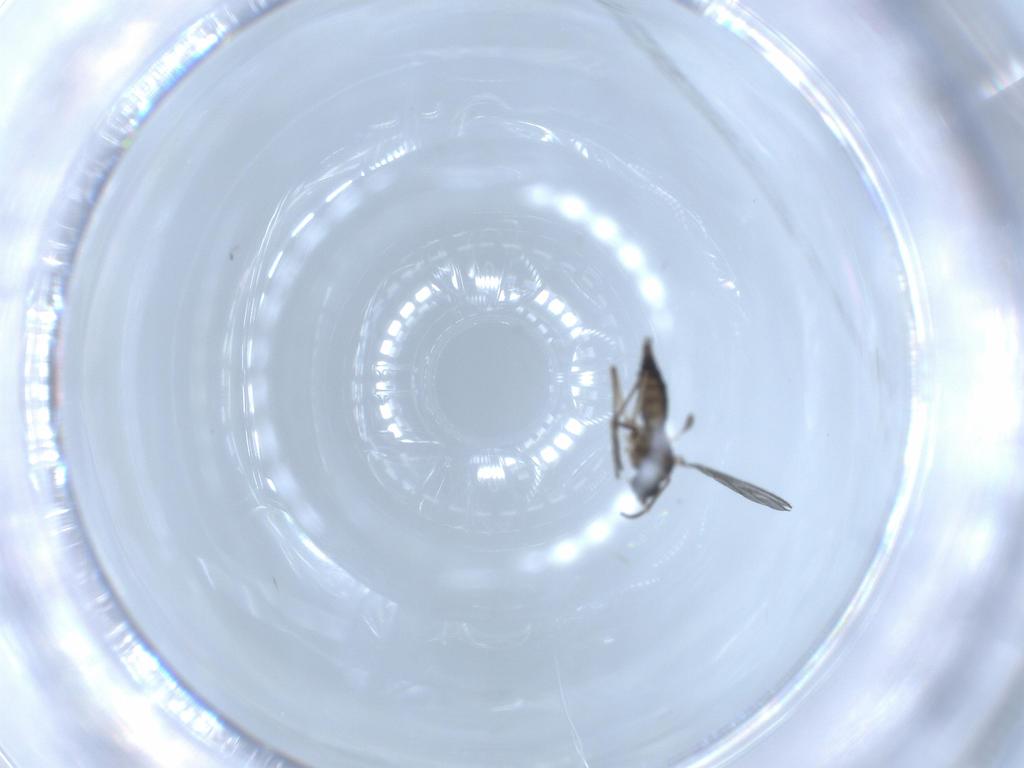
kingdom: Animalia
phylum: Arthropoda
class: Insecta
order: Diptera
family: Sciaridae
